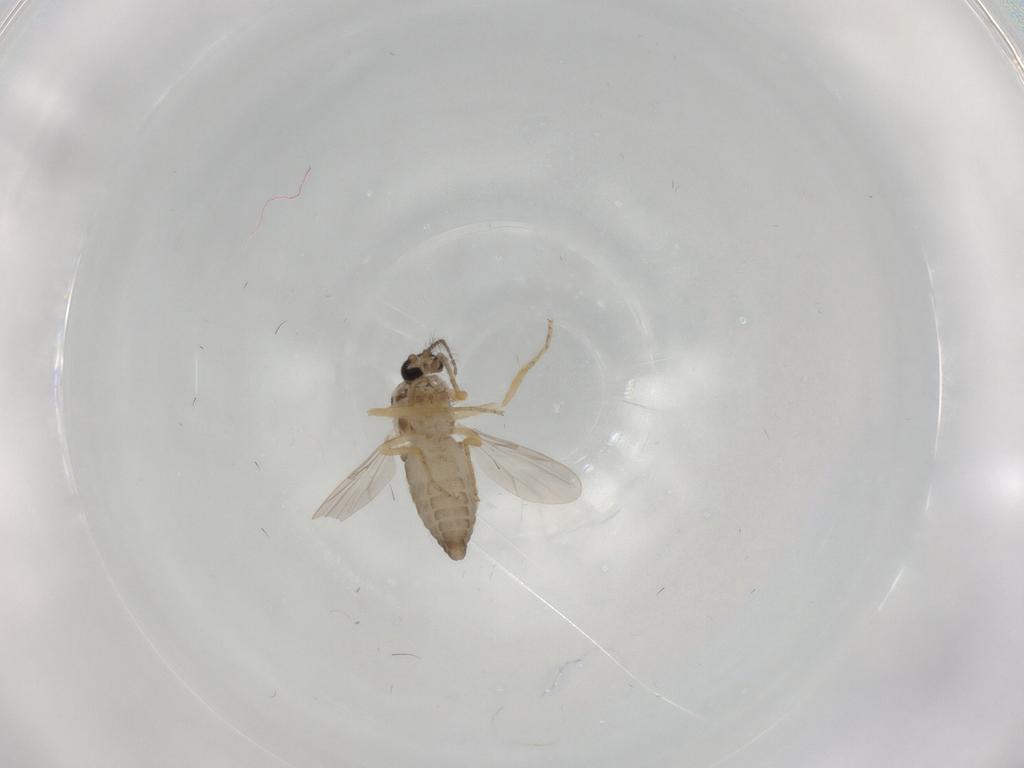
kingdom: Animalia
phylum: Arthropoda
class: Insecta
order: Diptera
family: Ceratopogonidae
